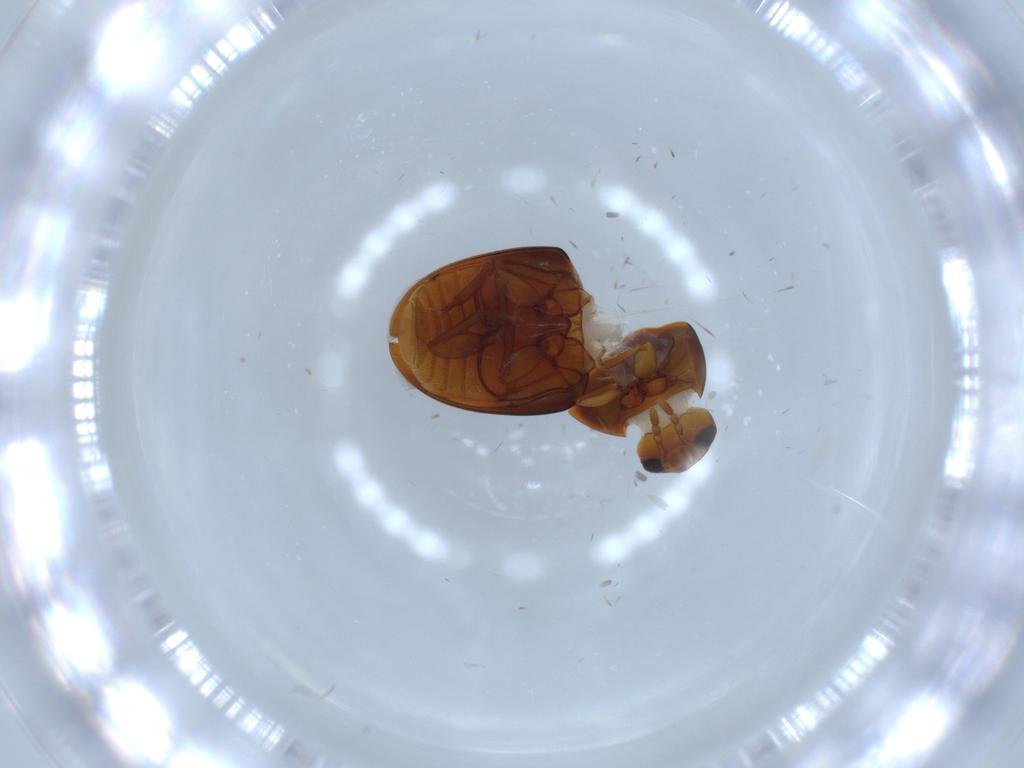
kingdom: Animalia
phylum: Arthropoda
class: Insecta
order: Coleoptera
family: Phalacridae
